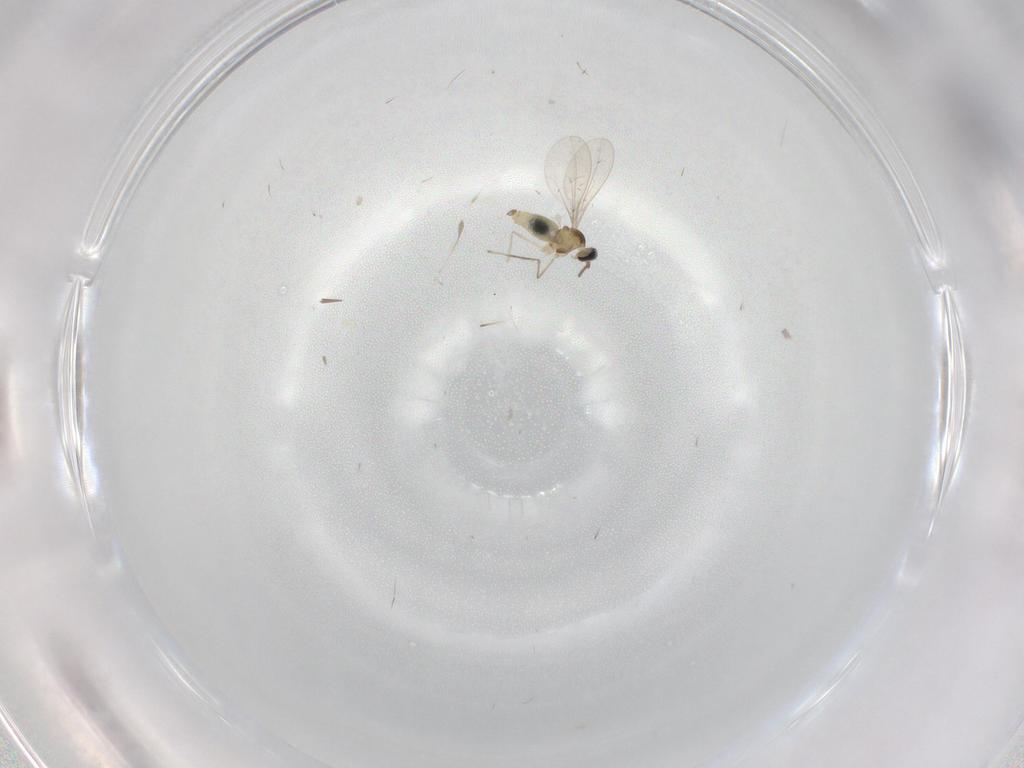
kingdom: Animalia
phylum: Arthropoda
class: Insecta
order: Diptera
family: Cecidomyiidae
